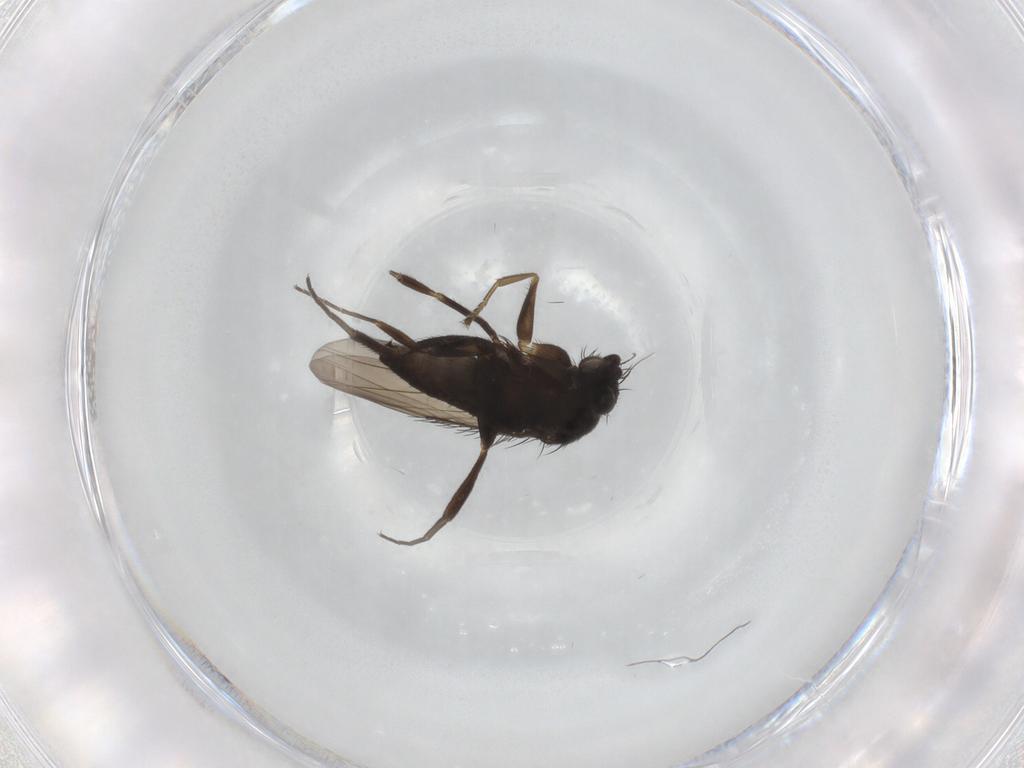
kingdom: Animalia
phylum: Arthropoda
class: Insecta
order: Diptera
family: Phoridae
